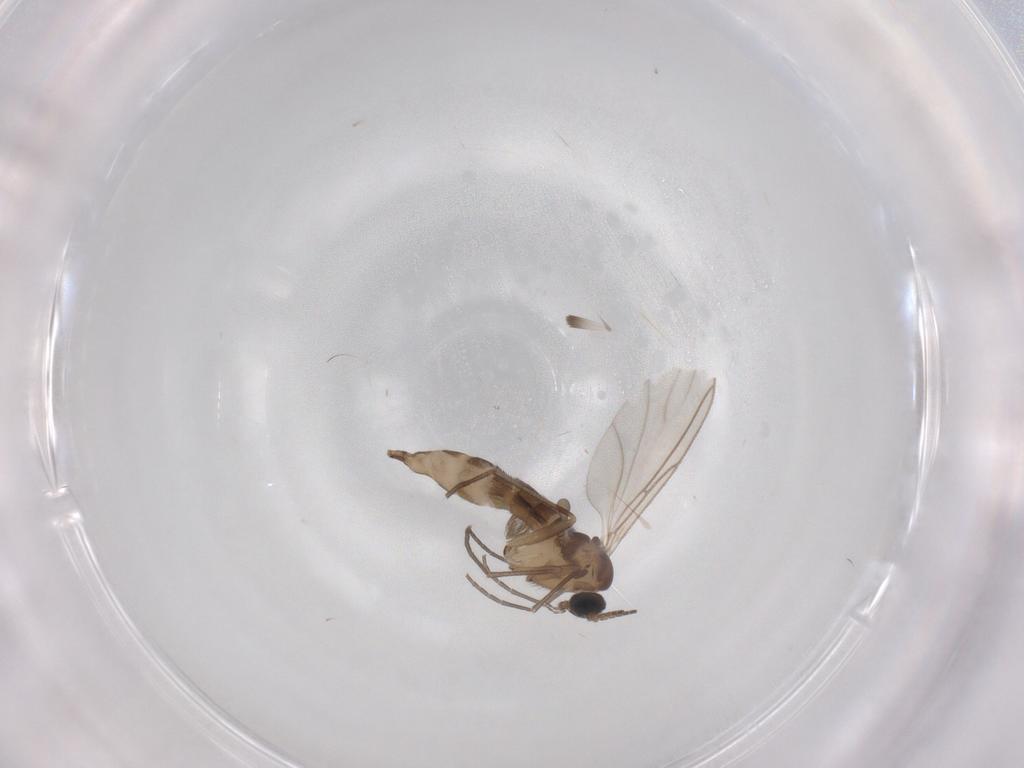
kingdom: Animalia
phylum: Arthropoda
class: Insecta
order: Diptera
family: Sciaridae
